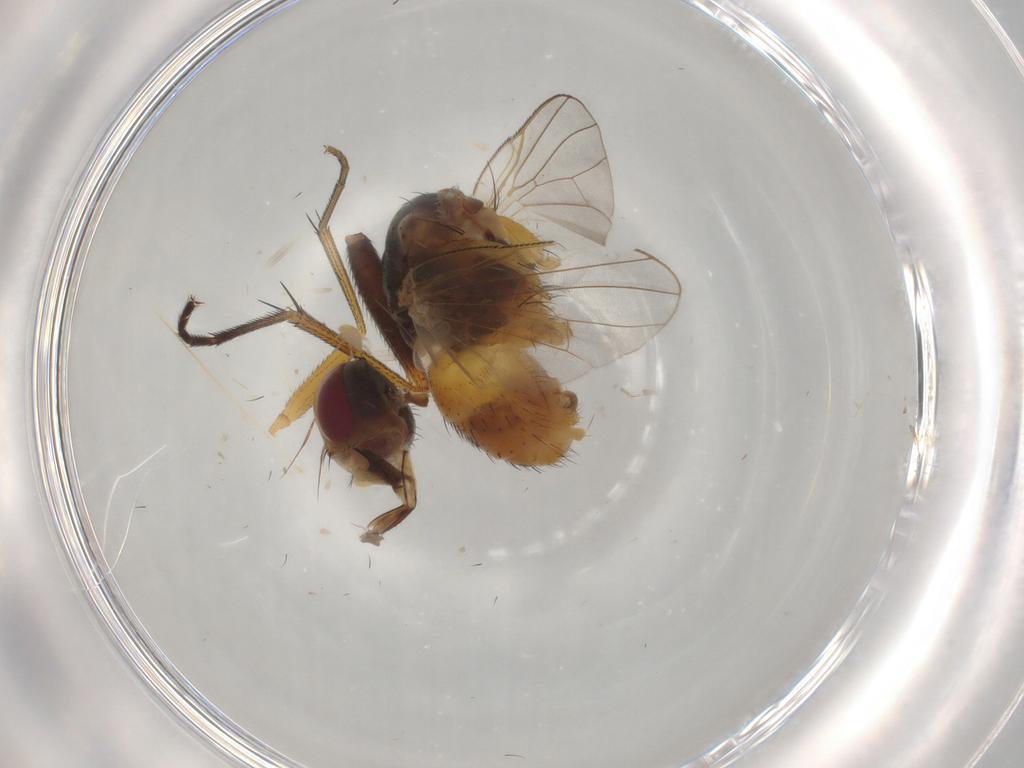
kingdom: Animalia
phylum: Arthropoda
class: Insecta
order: Diptera
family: Muscidae
